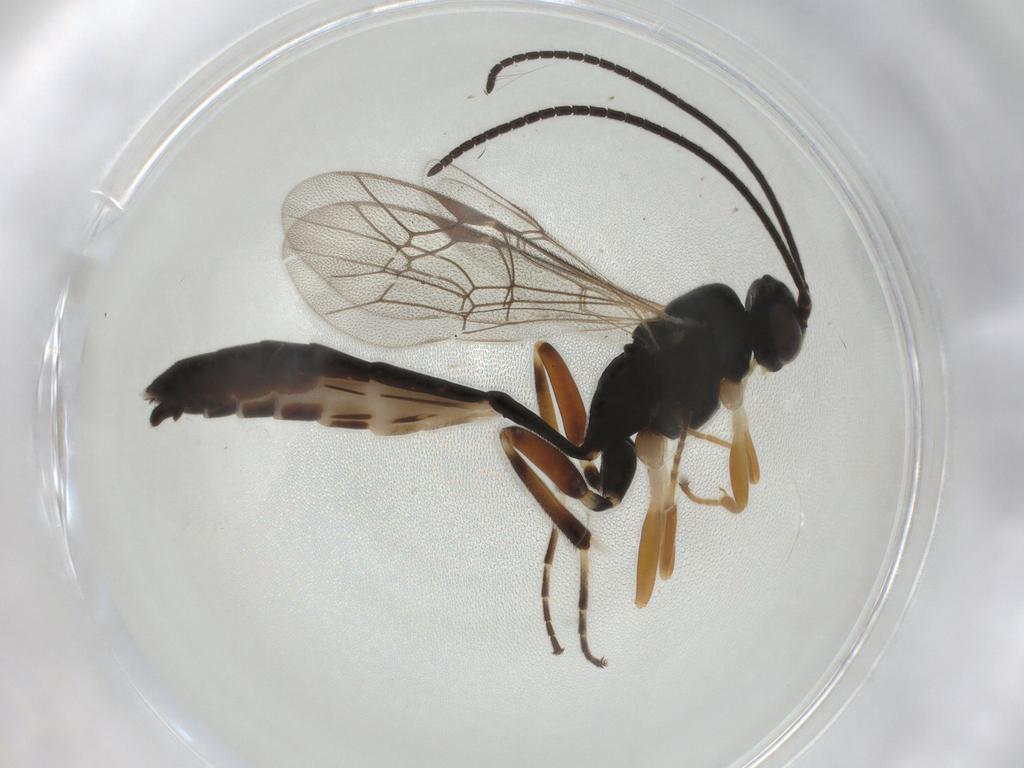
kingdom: Animalia
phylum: Arthropoda
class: Insecta
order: Hymenoptera
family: Ichneumonidae
